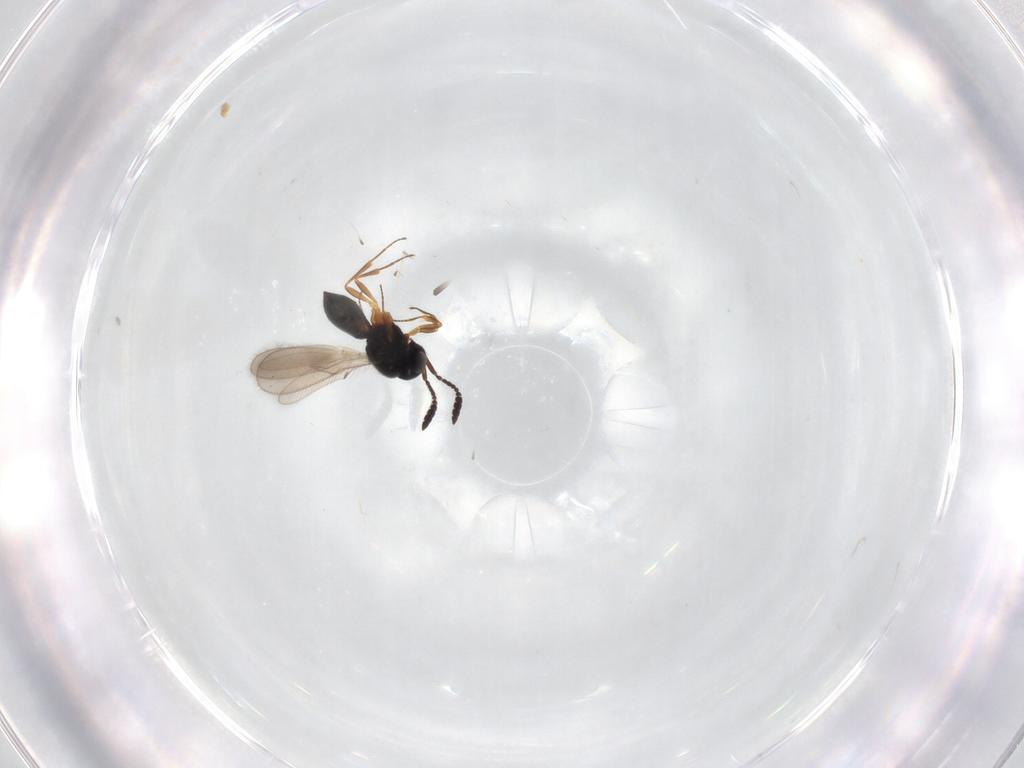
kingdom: Animalia
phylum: Arthropoda
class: Insecta
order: Hymenoptera
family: Scelionidae
